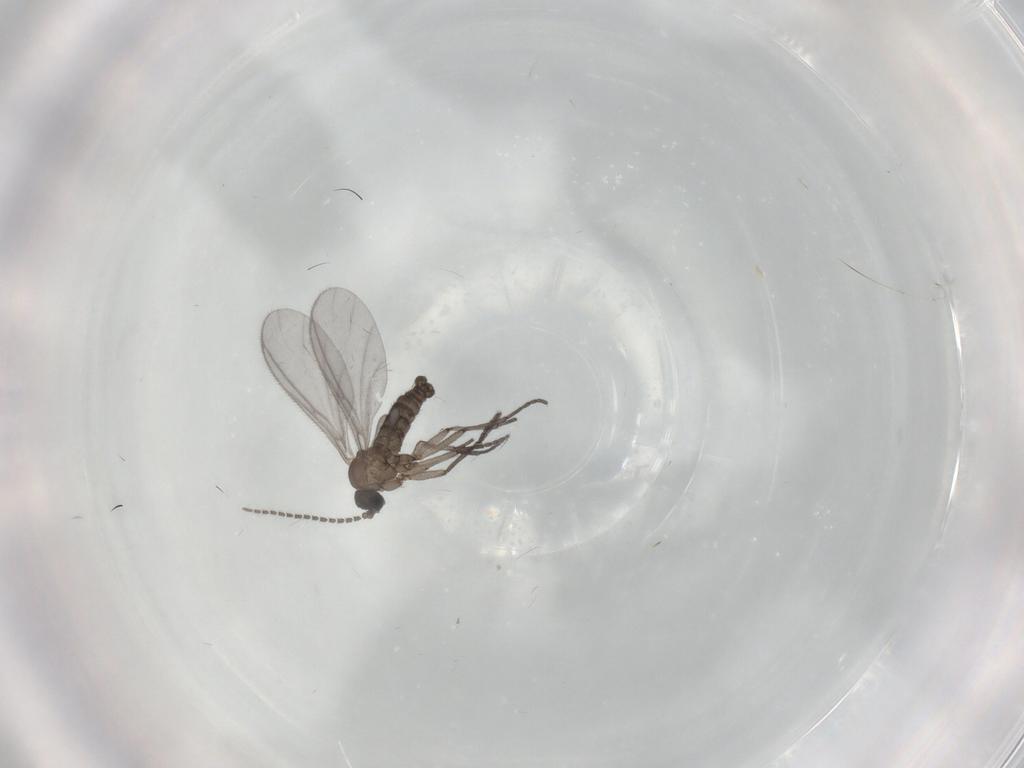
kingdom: Animalia
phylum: Arthropoda
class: Insecta
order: Diptera
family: Sciaridae
